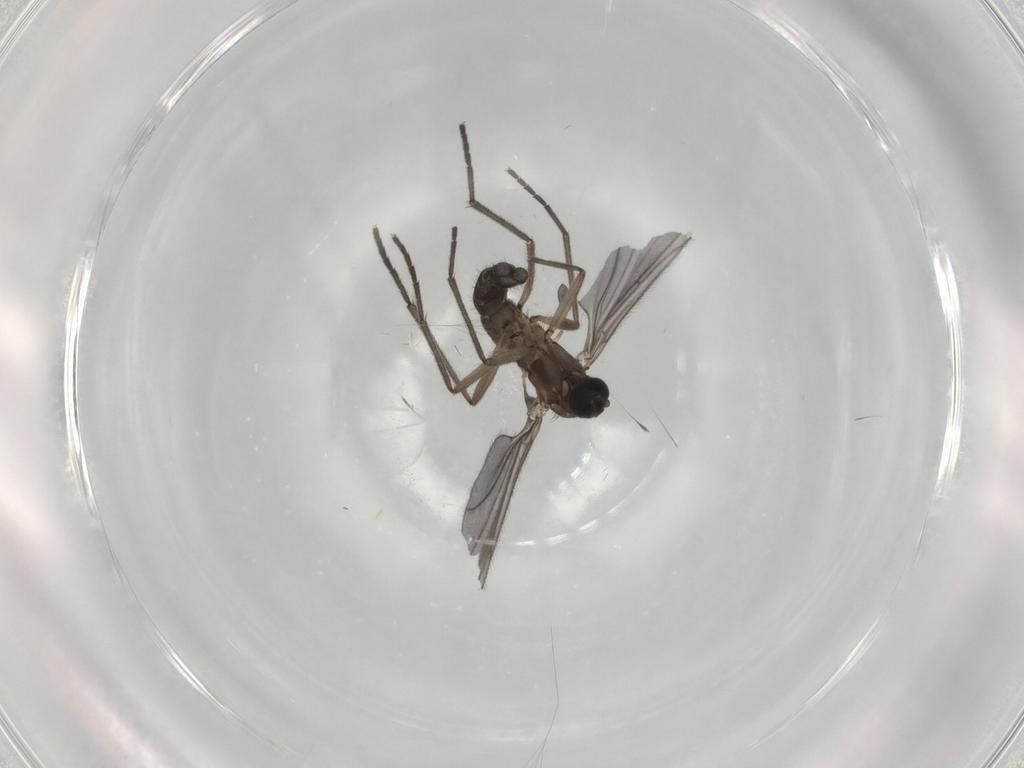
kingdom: Animalia
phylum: Arthropoda
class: Insecta
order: Diptera
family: Sciaridae
